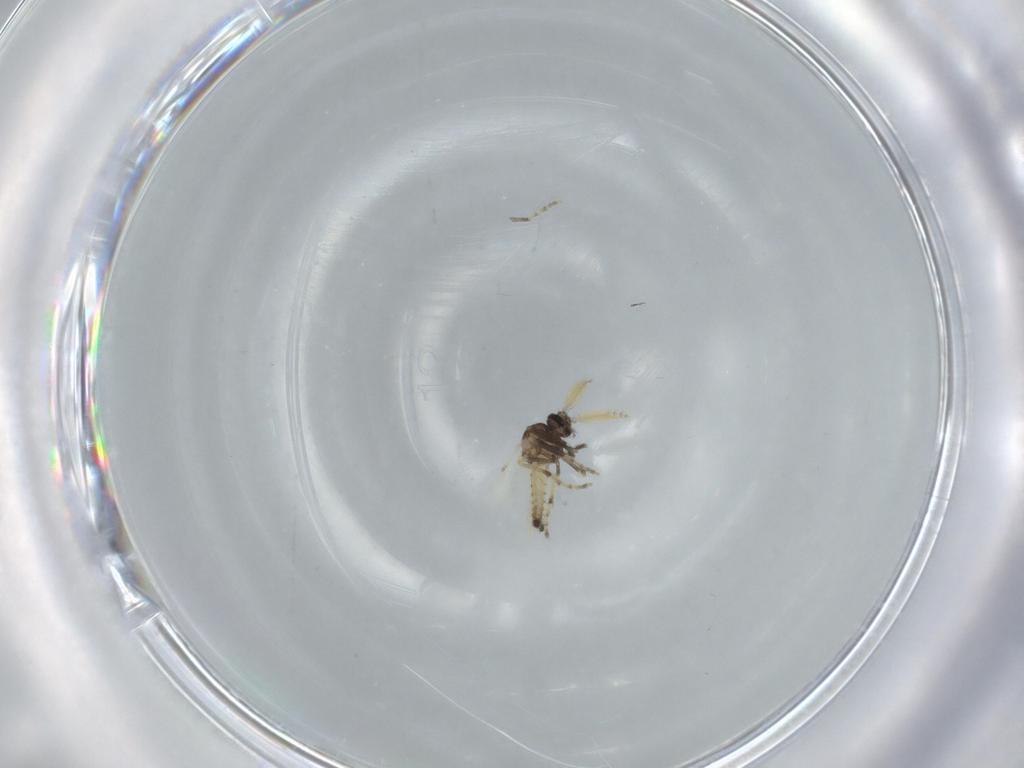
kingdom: Animalia
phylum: Arthropoda
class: Insecta
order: Diptera
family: Ceratopogonidae
